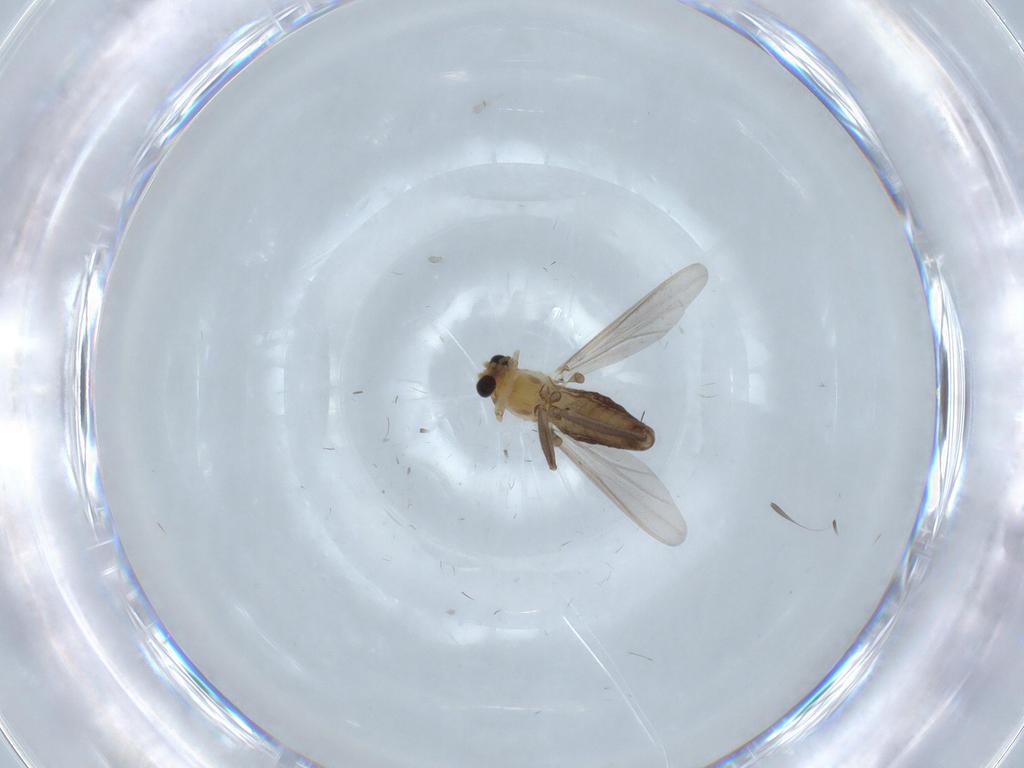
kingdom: Animalia
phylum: Arthropoda
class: Insecta
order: Diptera
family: Chironomidae
